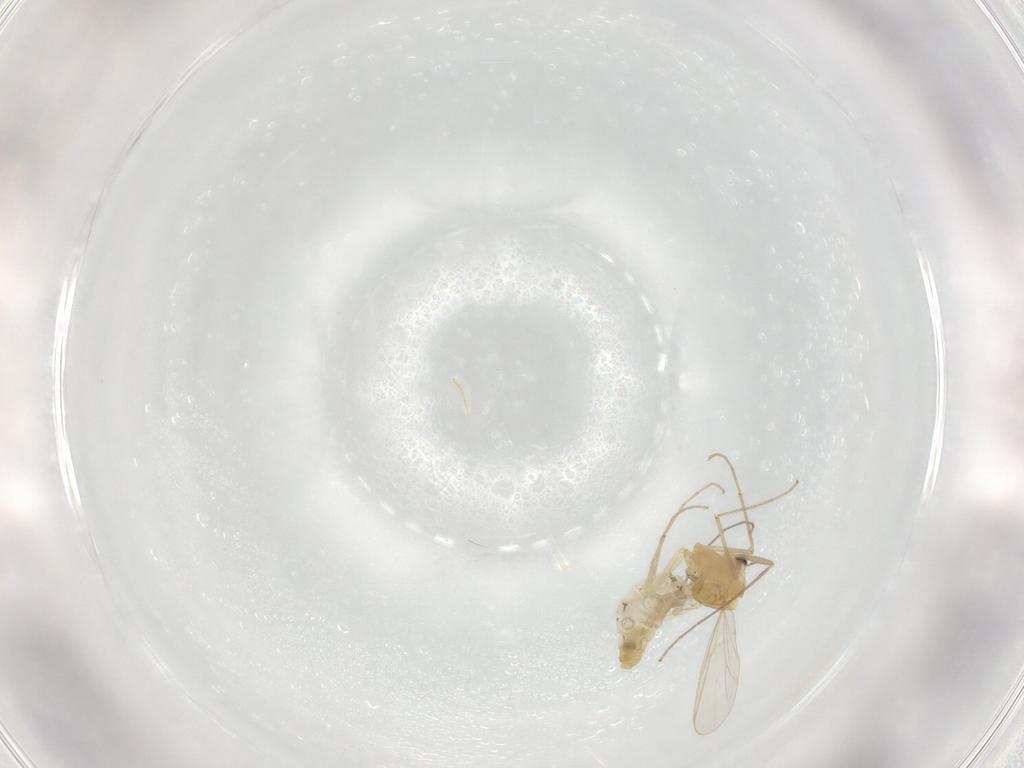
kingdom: Animalia
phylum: Arthropoda
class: Insecta
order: Diptera
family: Chironomidae
